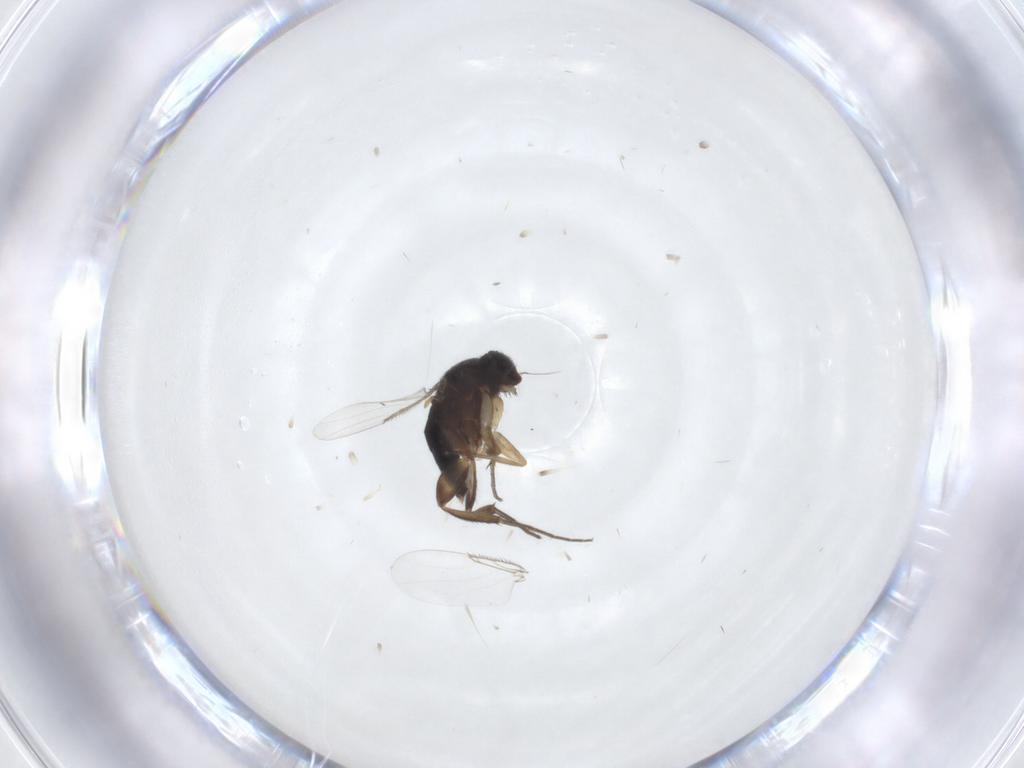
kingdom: Animalia
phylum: Arthropoda
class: Insecta
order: Diptera
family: Phoridae
